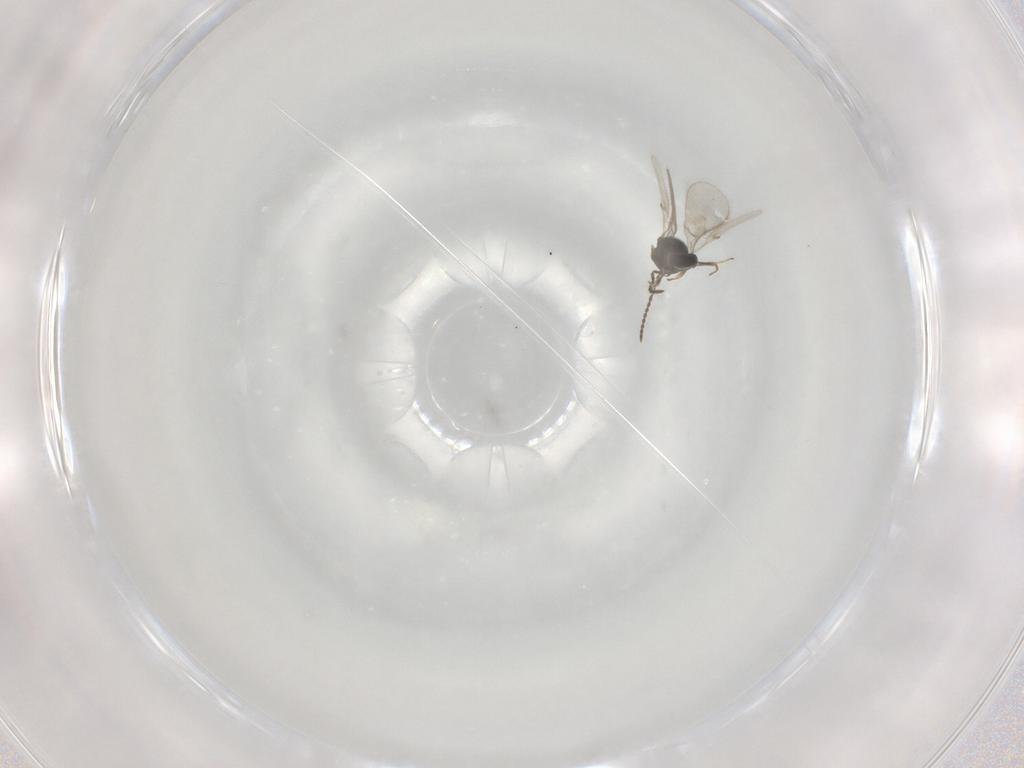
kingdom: Animalia
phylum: Arthropoda
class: Insecta
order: Hymenoptera
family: Scelionidae
